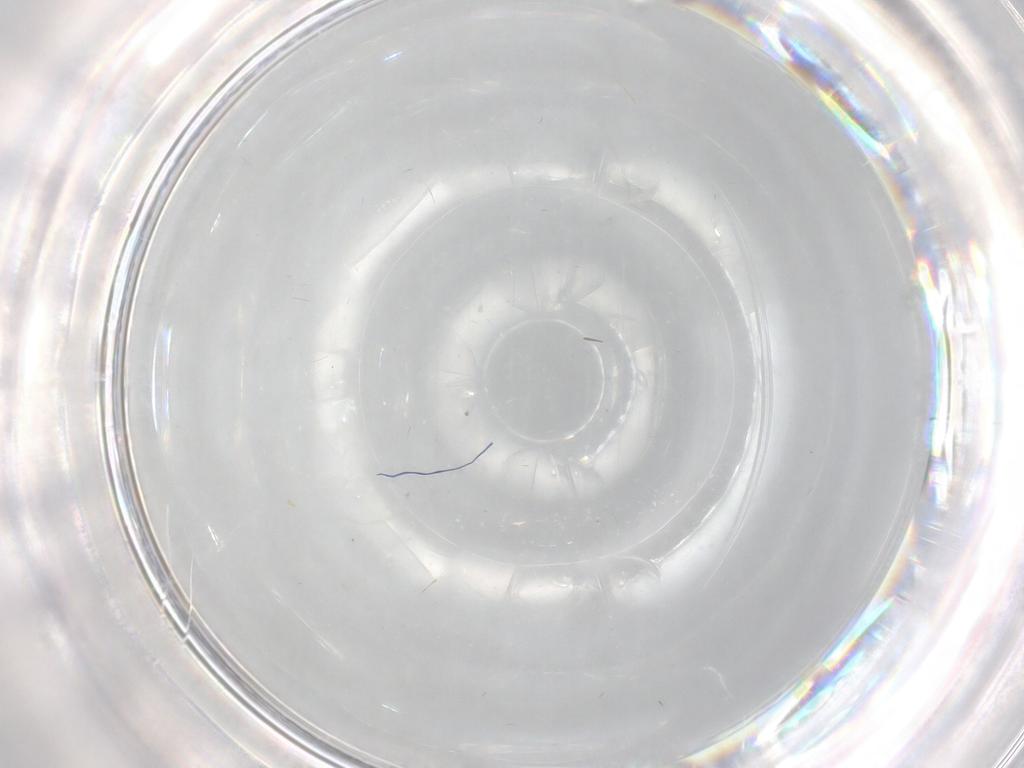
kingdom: Animalia
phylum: Arthropoda
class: Insecta
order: Diptera
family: Cecidomyiidae
